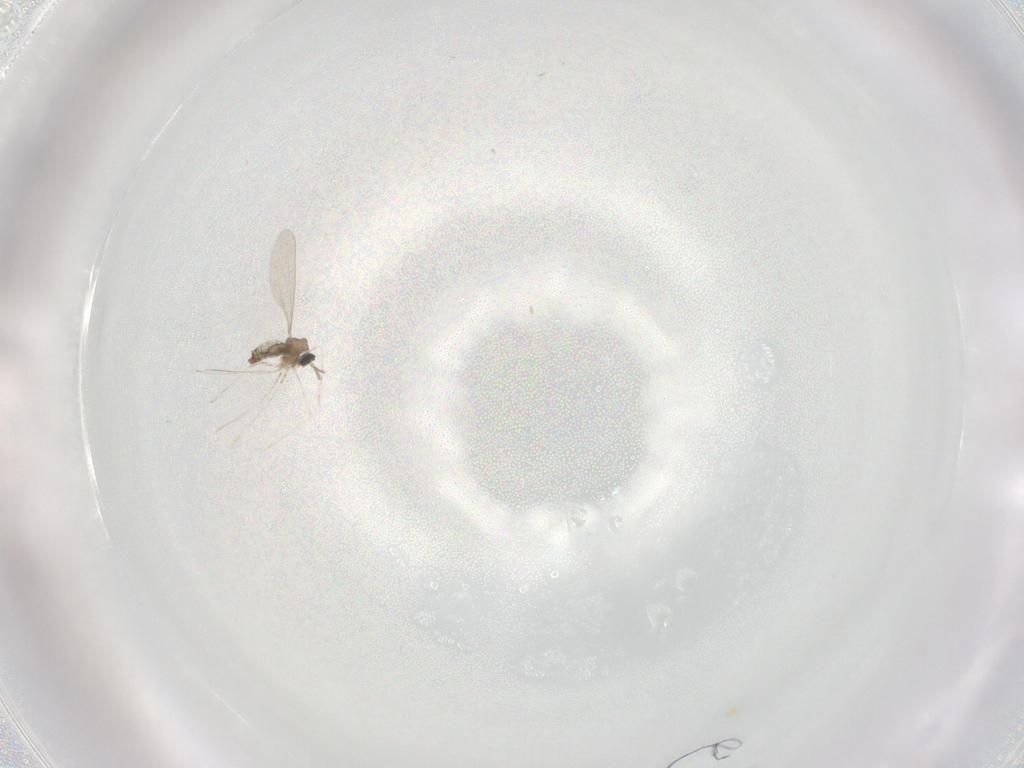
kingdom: Animalia
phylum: Arthropoda
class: Insecta
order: Diptera
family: Cecidomyiidae
